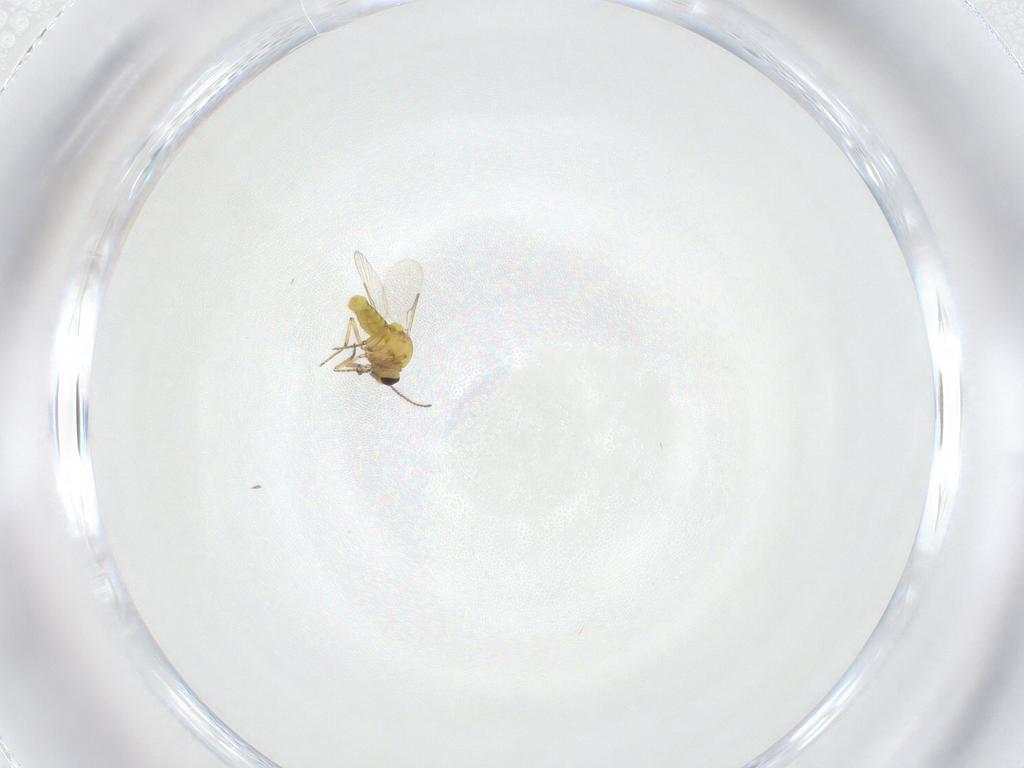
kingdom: Animalia
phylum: Arthropoda
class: Insecta
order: Diptera
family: Ceratopogonidae
